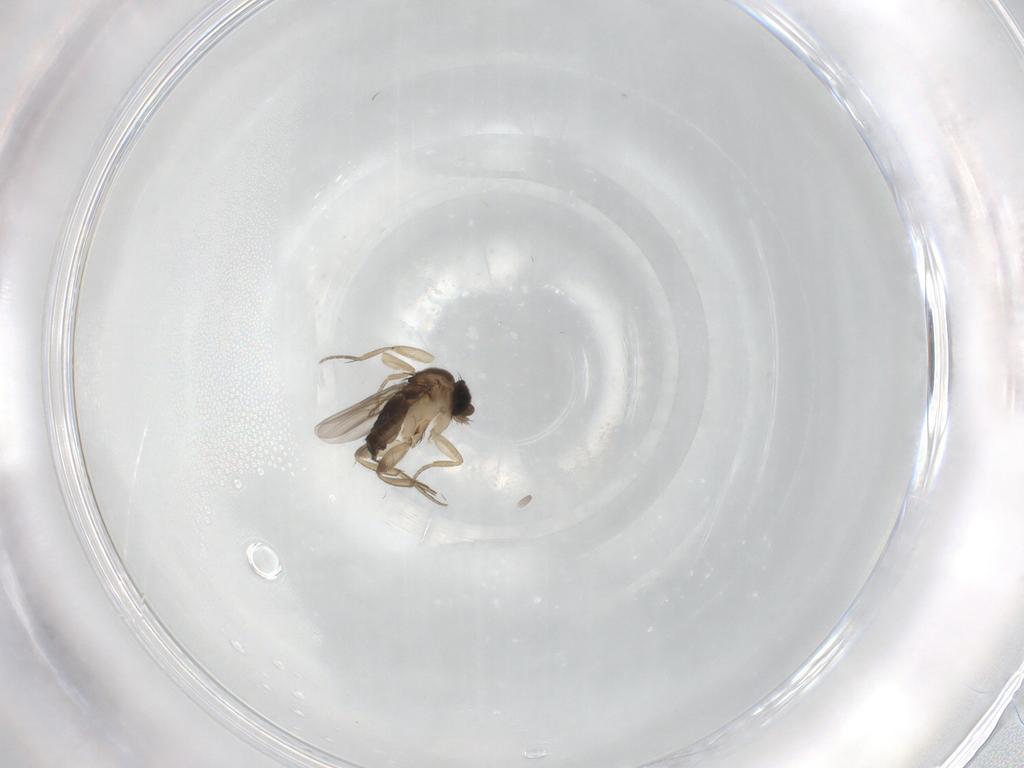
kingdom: Animalia
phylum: Arthropoda
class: Insecta
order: Diptera
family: Phoridae
